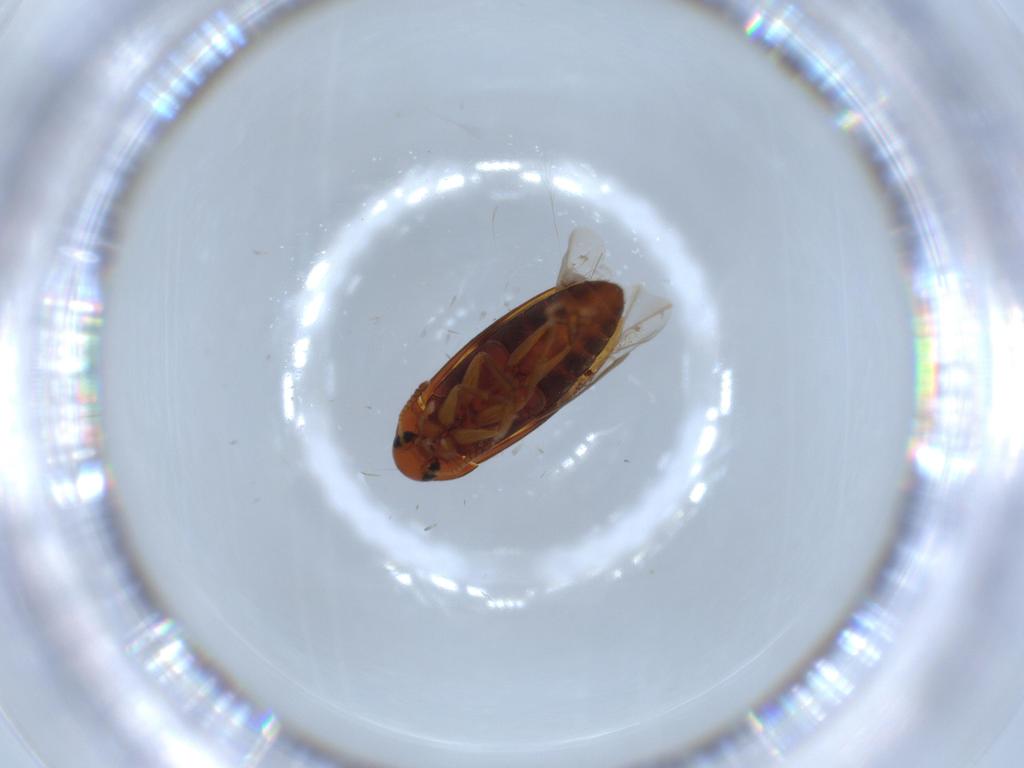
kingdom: Animalia
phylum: Arthropoda
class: Insecta
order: Coleoptera
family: Scraptiidae
